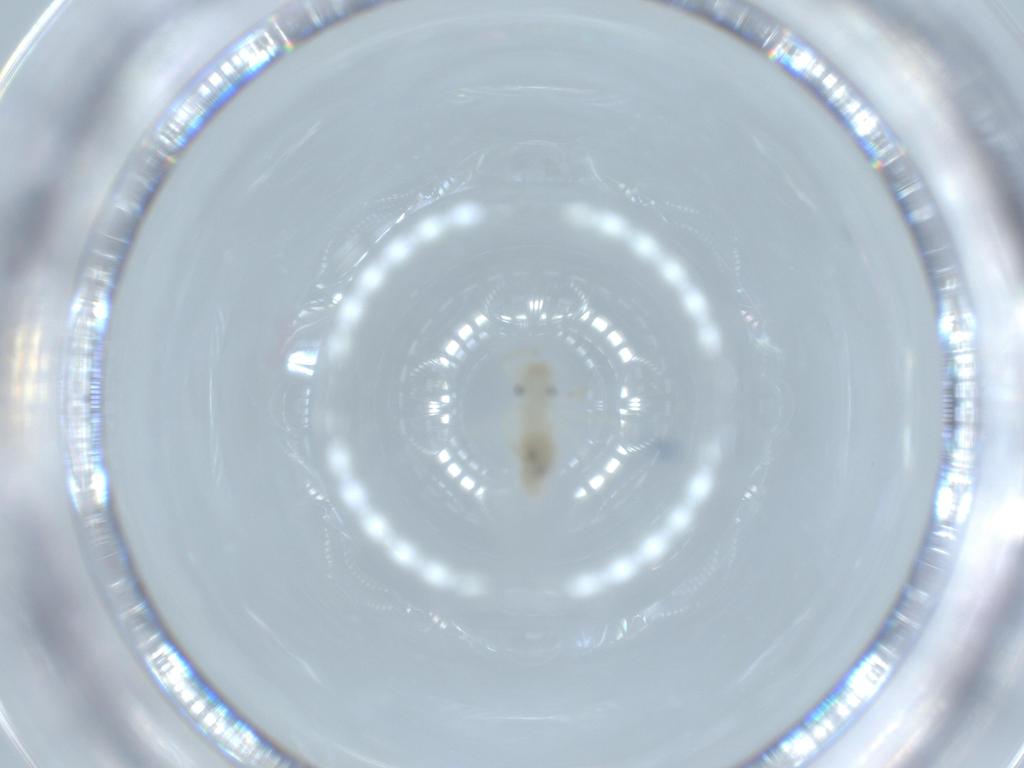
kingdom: Animalia
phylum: Arthropoda
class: Insecta
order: Psocodea
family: Caeciliusidae
